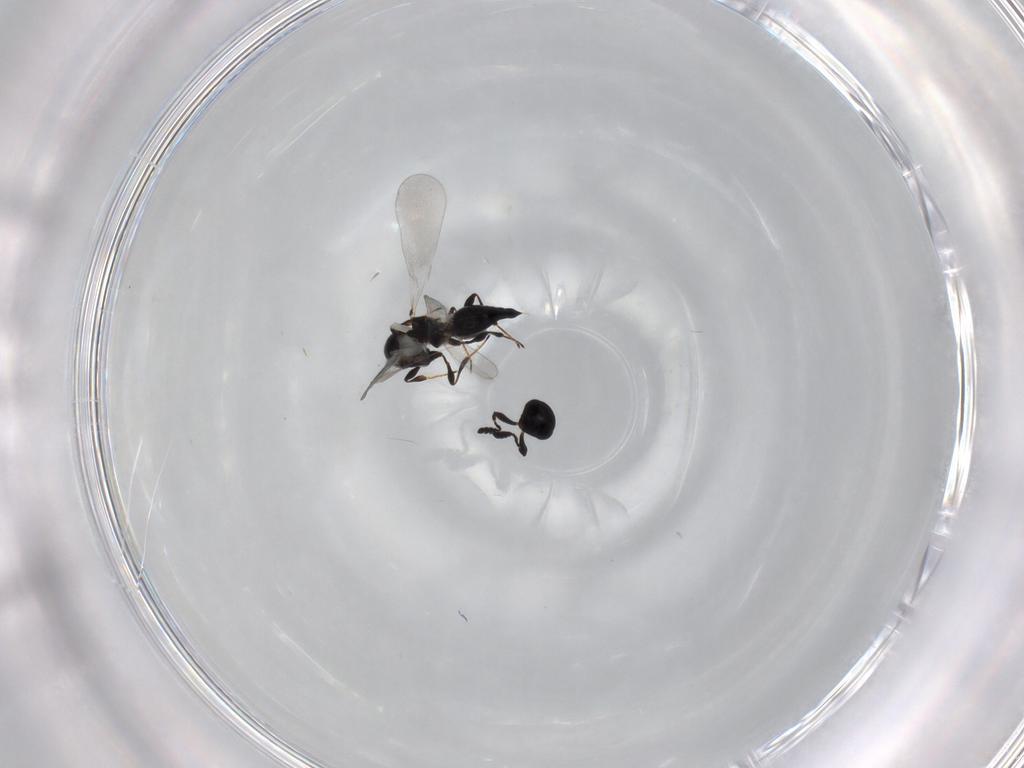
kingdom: Animalia
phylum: Arthropoda
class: Insecta
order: Hymenoptera
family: Platygastridae
